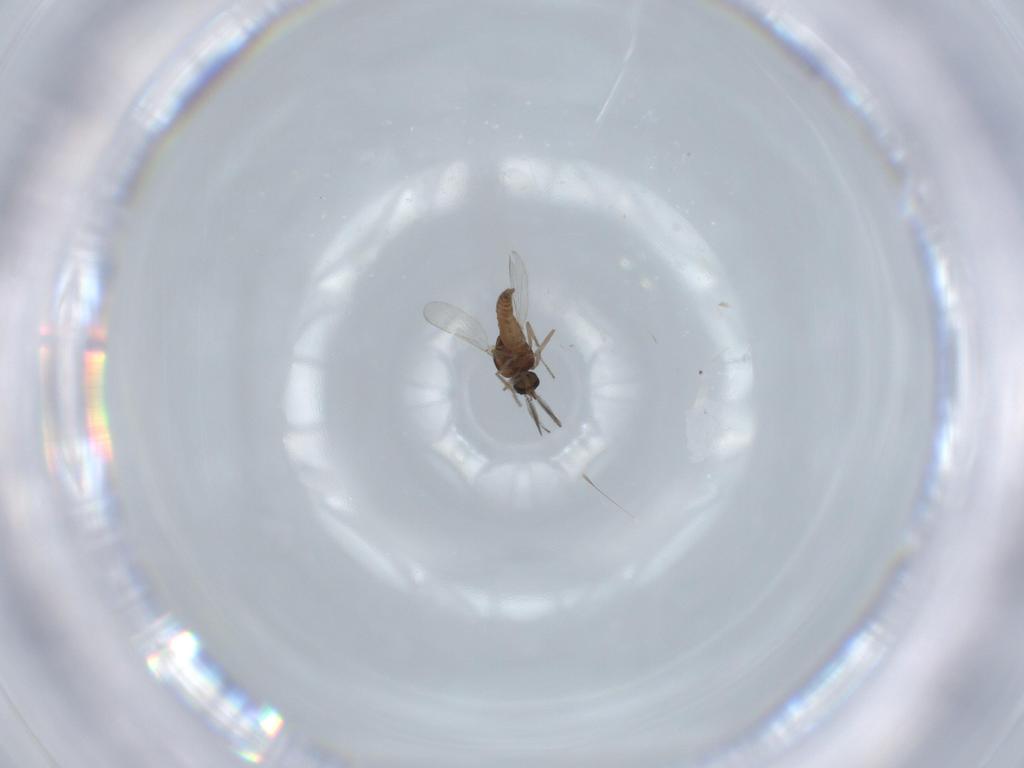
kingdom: Animalia
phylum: Arthropoda
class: Insecta
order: Diptera
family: Ceratopogonidae
